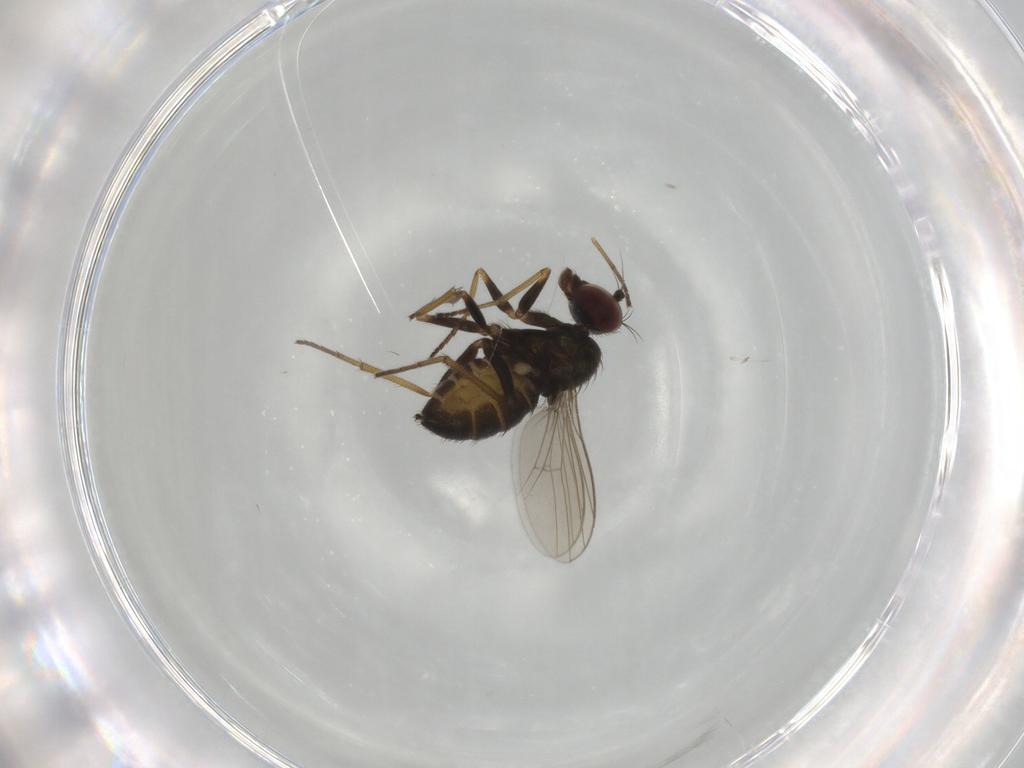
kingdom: Animalia
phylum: Arthropoda
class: Insecta
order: Diptera
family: Dolichopodidae
